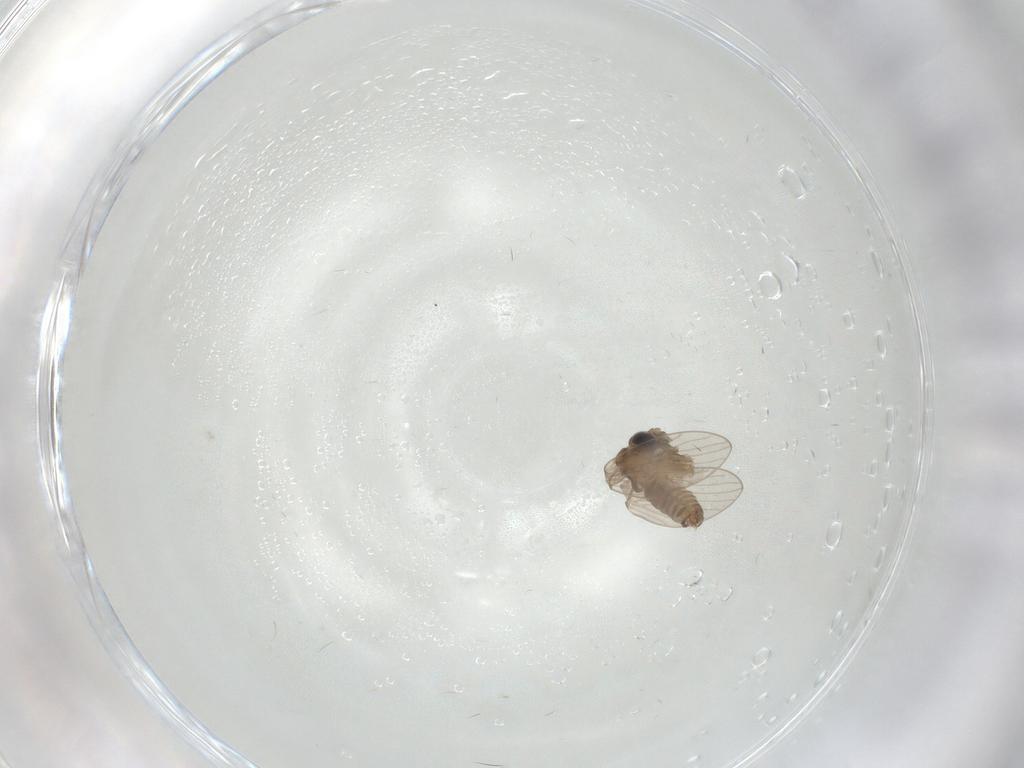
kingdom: Animalia
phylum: Arthropoda
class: Insecta
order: Diptera
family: Psychodidae
